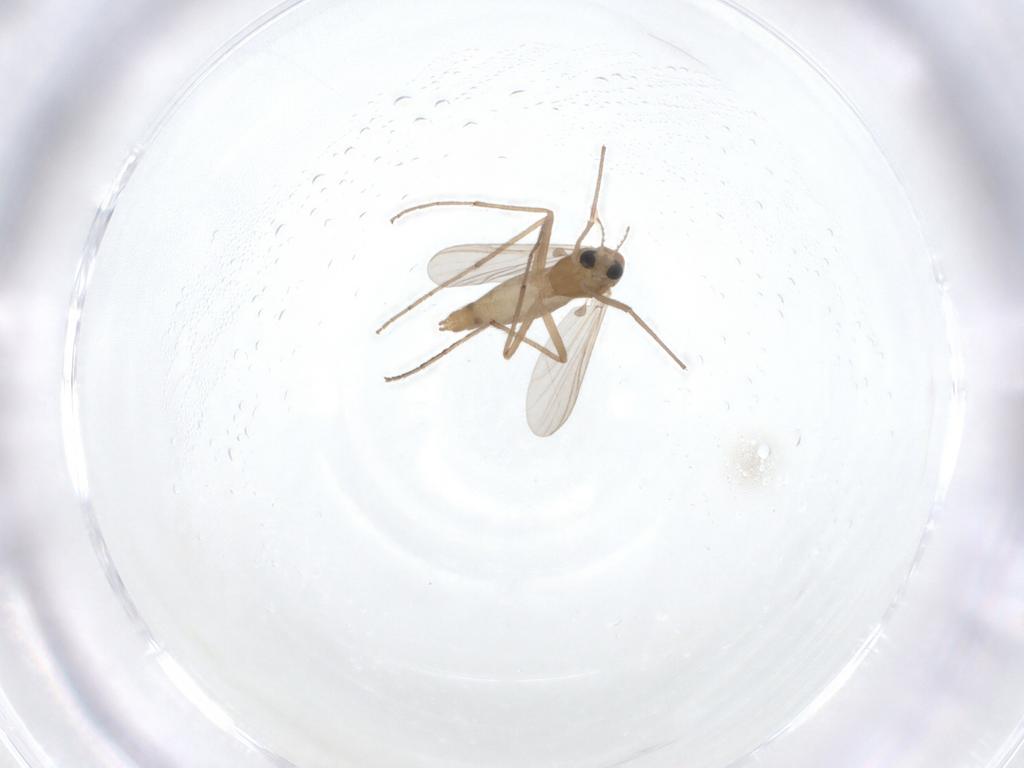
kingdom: Animalia
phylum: Arthropoda
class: Insecta
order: Diptera
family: Chironomidae
